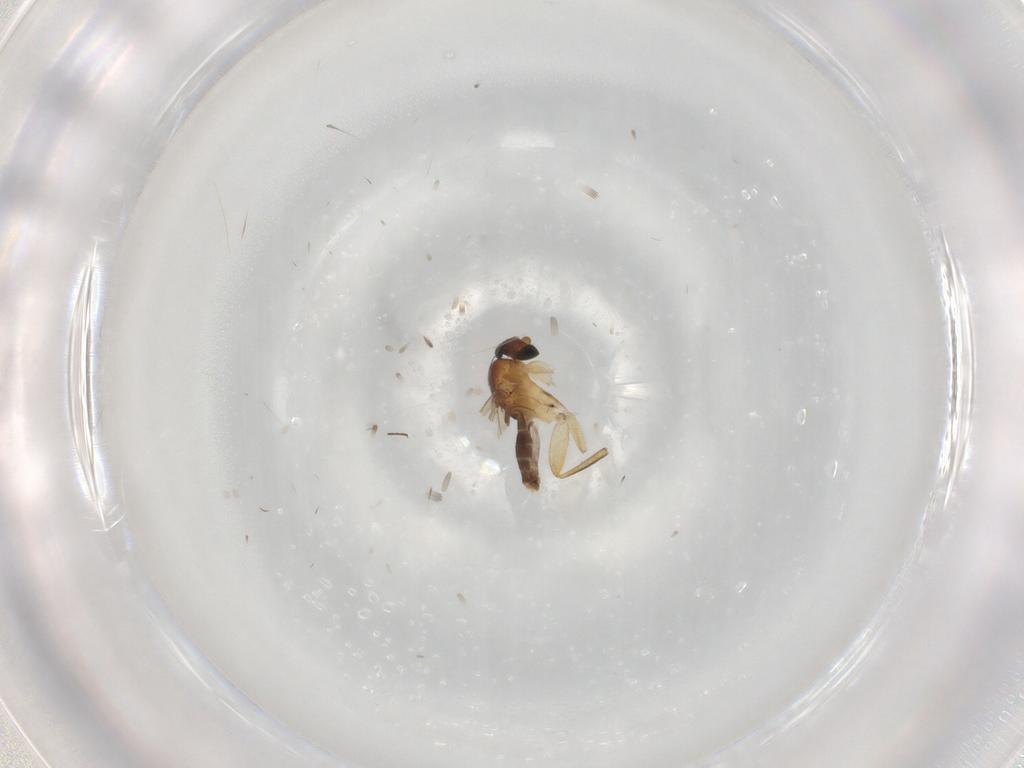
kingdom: Animalia
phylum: Arthropoda
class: Insecta
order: Diptera
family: Phoridae
